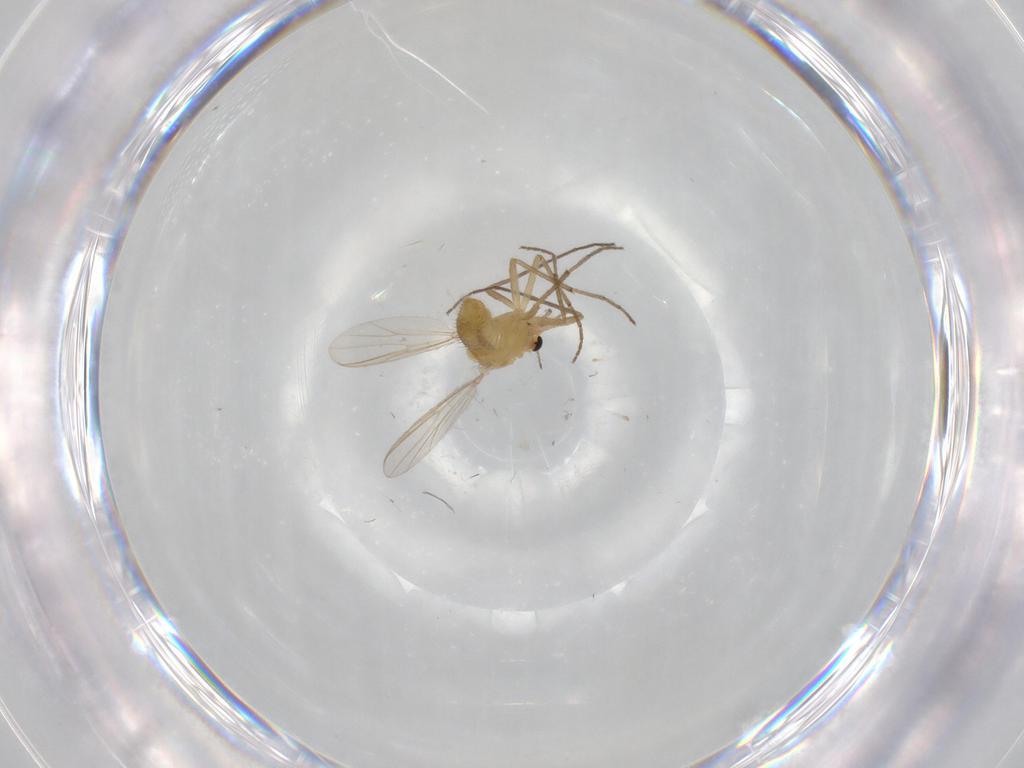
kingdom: Animalia
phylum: Arthropoda
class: Insecta
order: Diptera
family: Chironomidae
